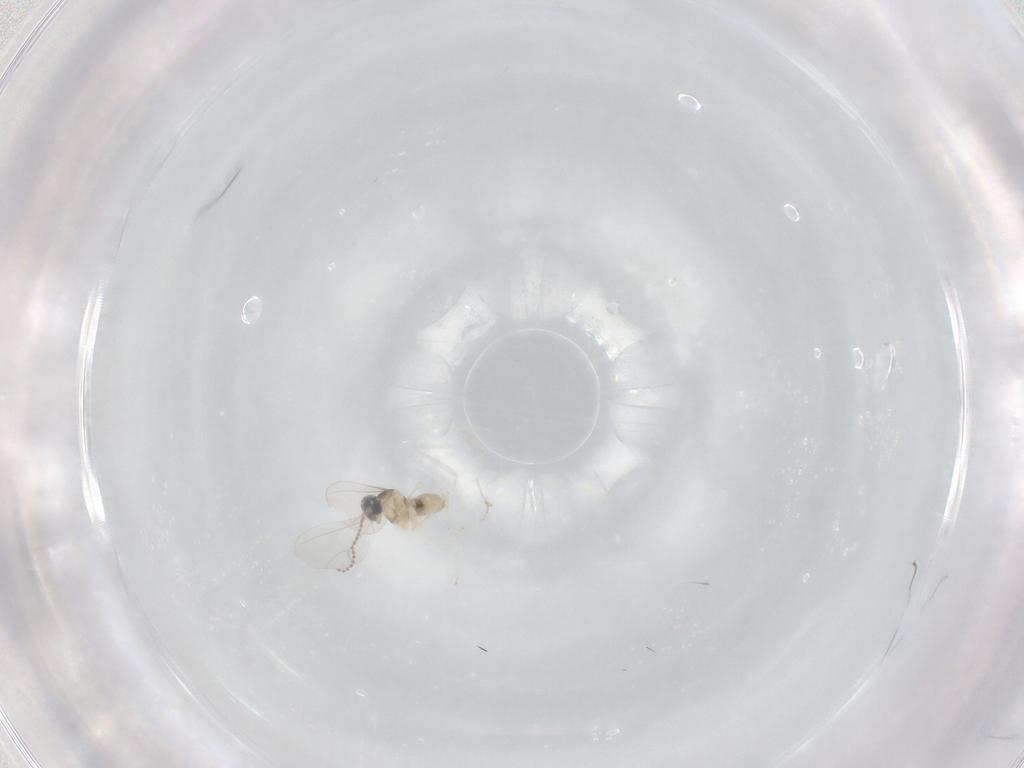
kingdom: Animalia
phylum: Arthropoda
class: Insecta
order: Diptera
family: Cecidomyiidae
